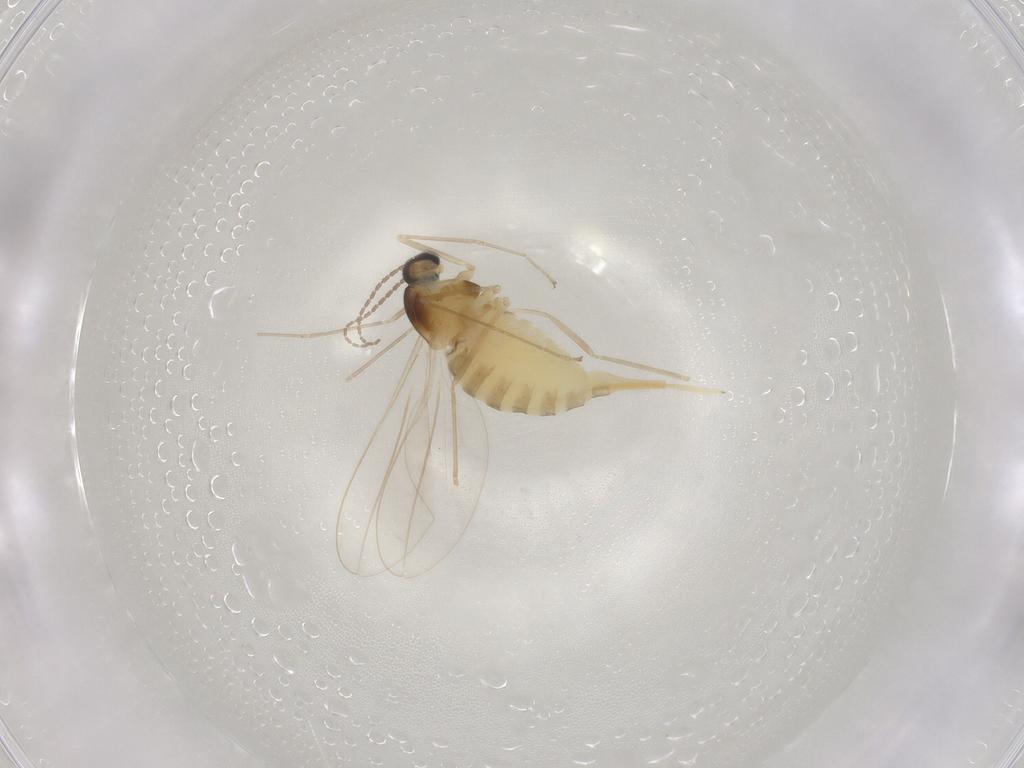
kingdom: Animalia
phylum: Arthropoda
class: Insecta
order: Diptera
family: Cecidomyiidae
